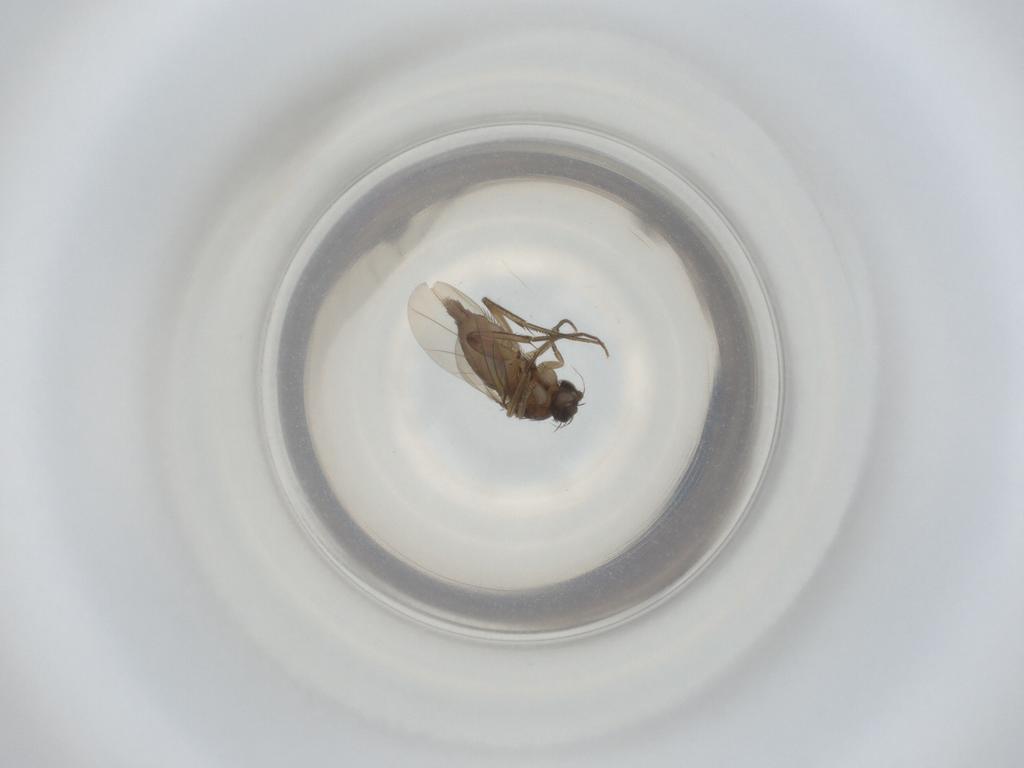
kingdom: Animalia
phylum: Arthropoda
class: Insecta
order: Diptera
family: Phoridae
